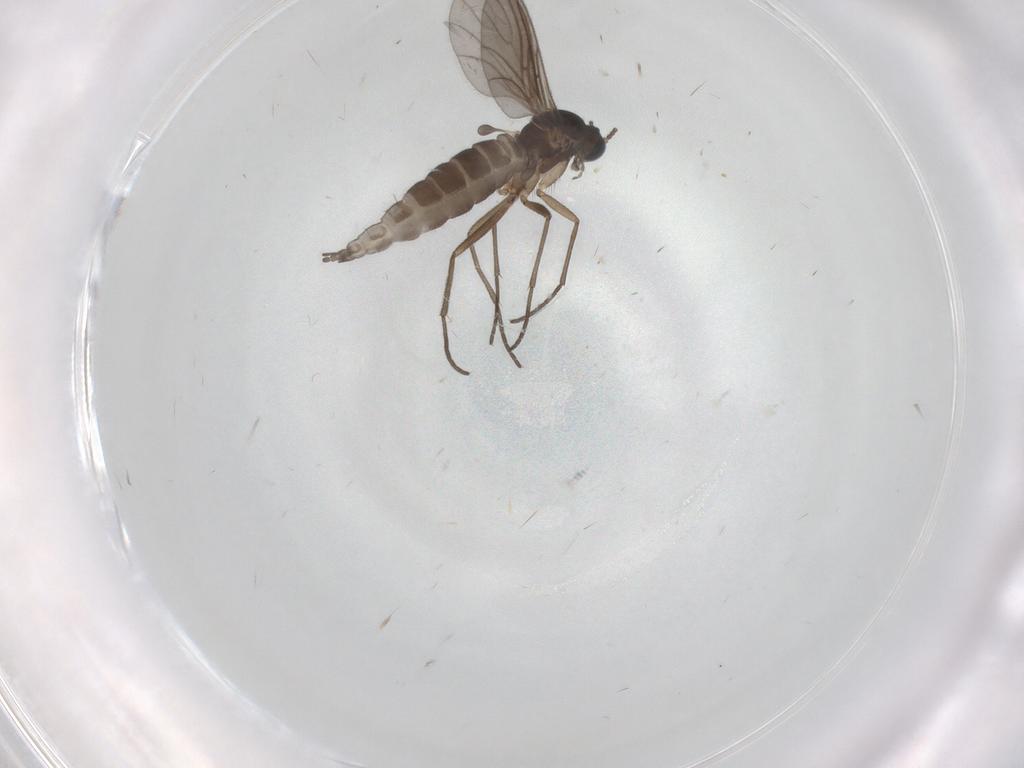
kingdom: Animalia
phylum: Arthropoda
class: Insecta
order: Diptera
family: Sciaridae
